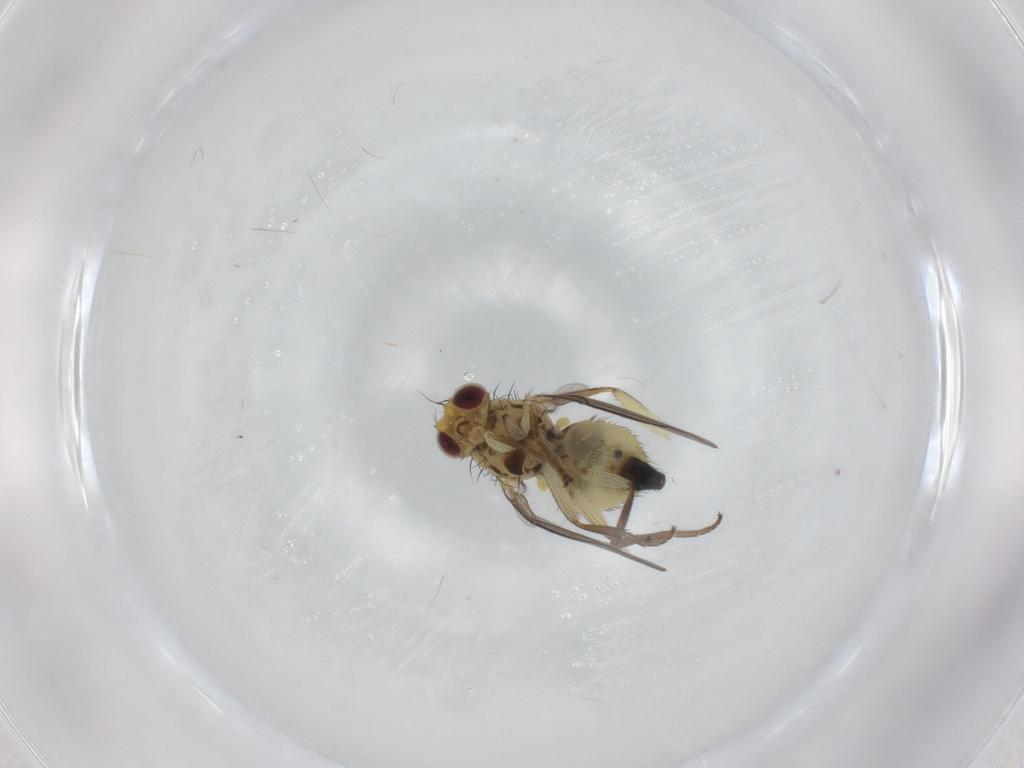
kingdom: Animalia
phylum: Arthropoda
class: Insecta
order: Diptera
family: Agromyzidae
